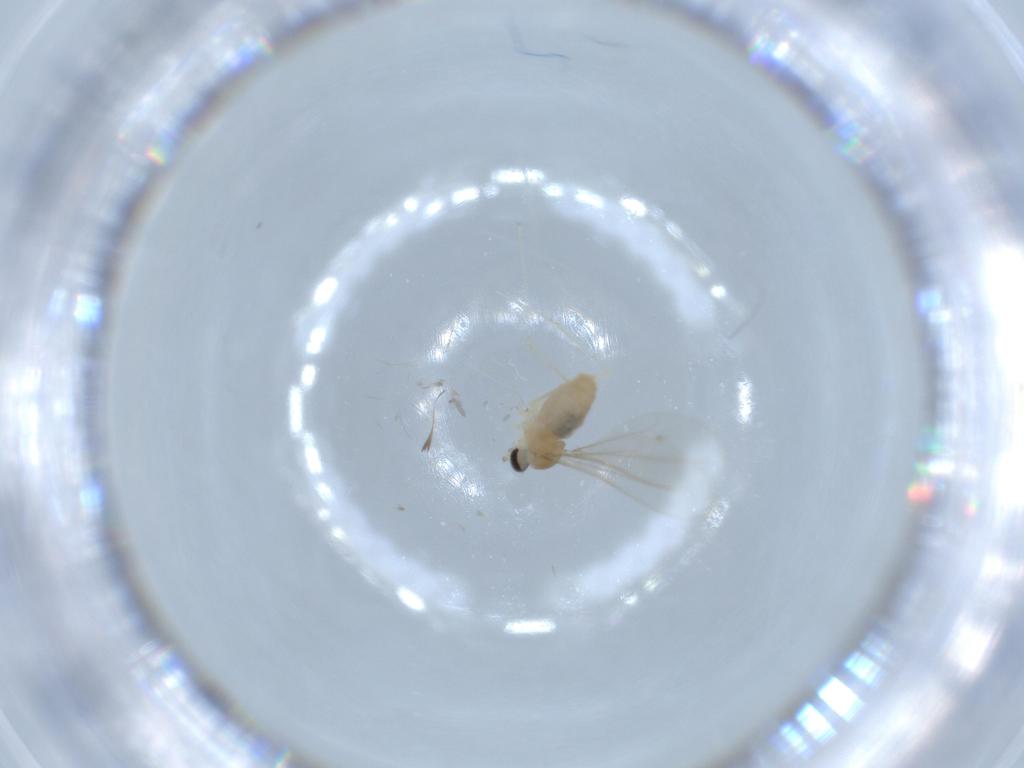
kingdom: Animalia
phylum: Arthropoda
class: Insecta
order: Diptera
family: Cecidomyiidae
